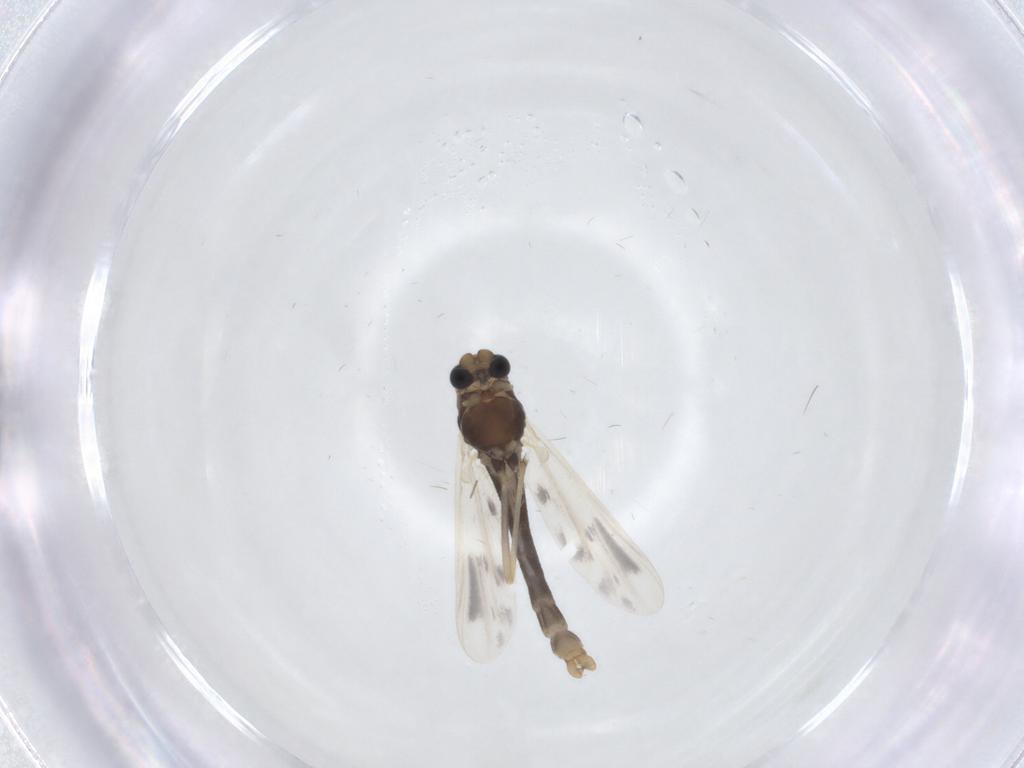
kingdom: Animalia
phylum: Arthropoda
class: Insecta
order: Diptera
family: Chironomidae
